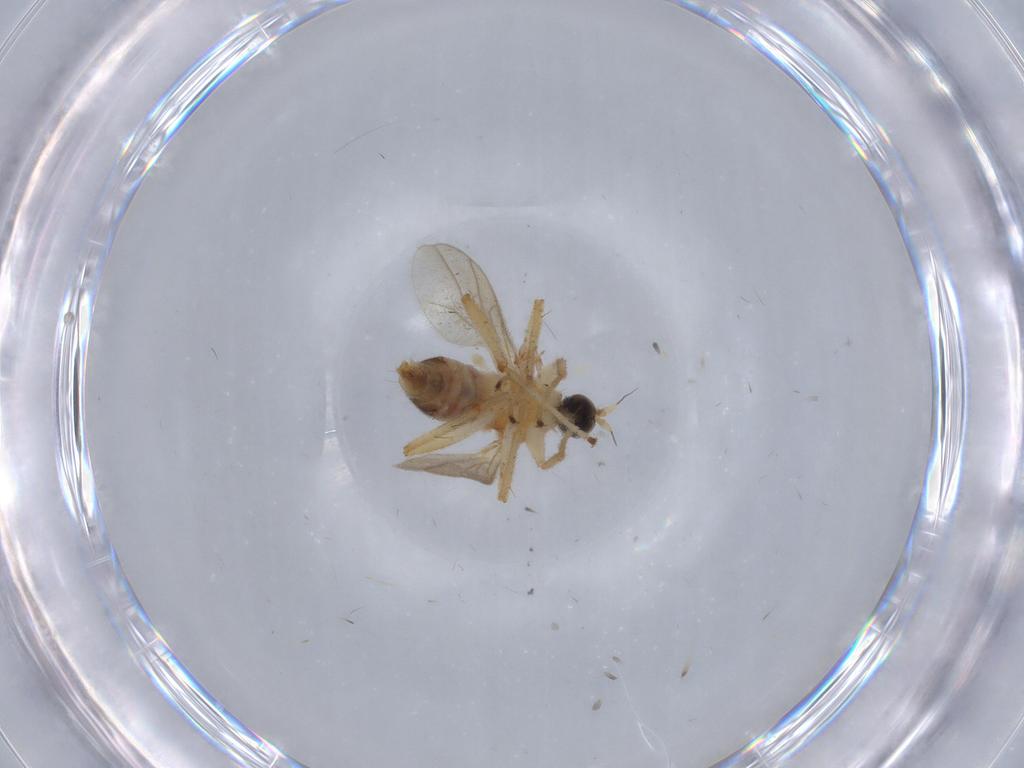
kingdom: Animalia
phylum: Arthropoda
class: Insecta
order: Diptera
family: Hybotidae
